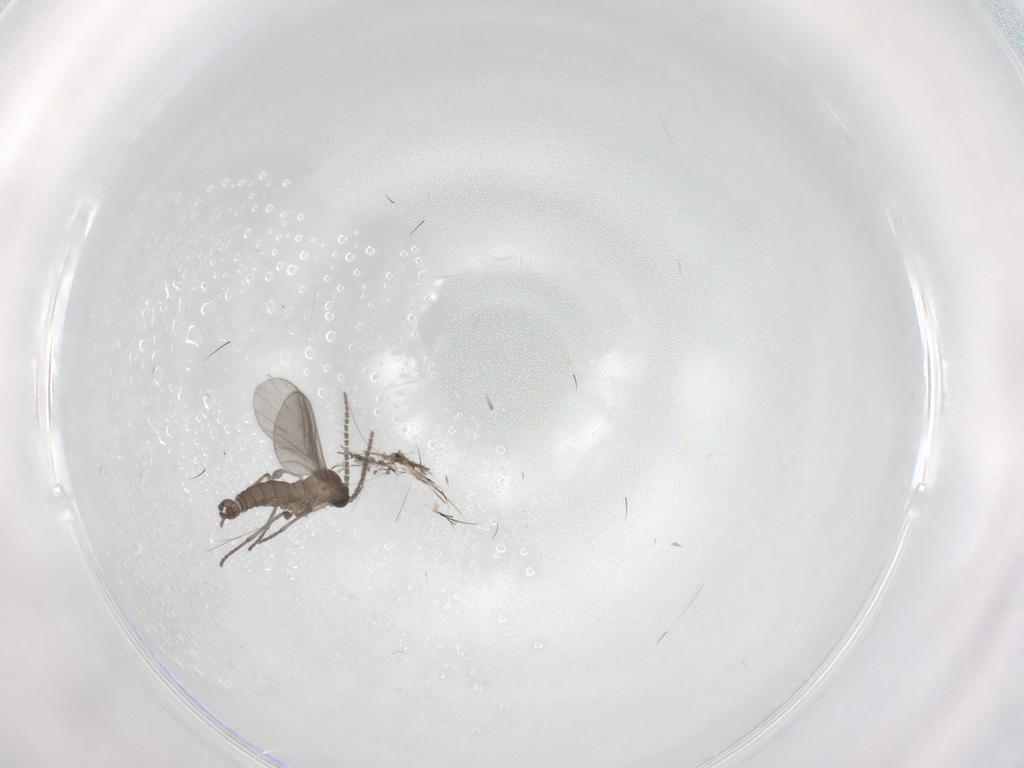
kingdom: Animalia
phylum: Arthropoda
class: Insecta
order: Diptera
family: Sciaridae
